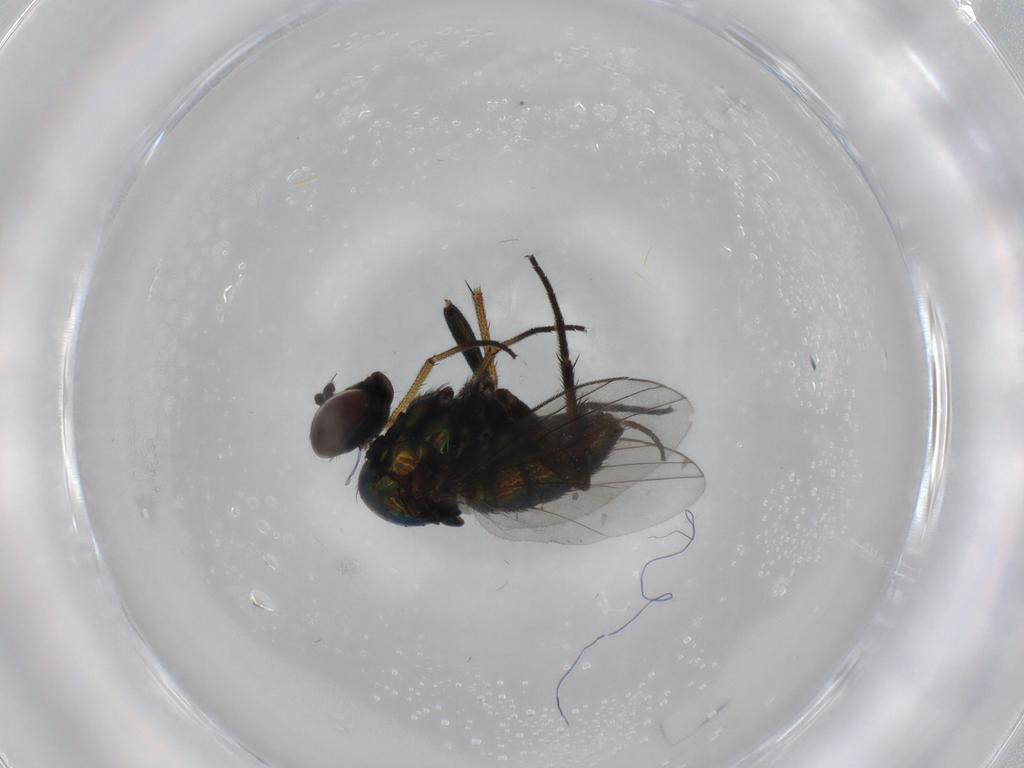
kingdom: Animalia
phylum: Arthropoda
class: Insecta
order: Diptera
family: Dolichopodidae
